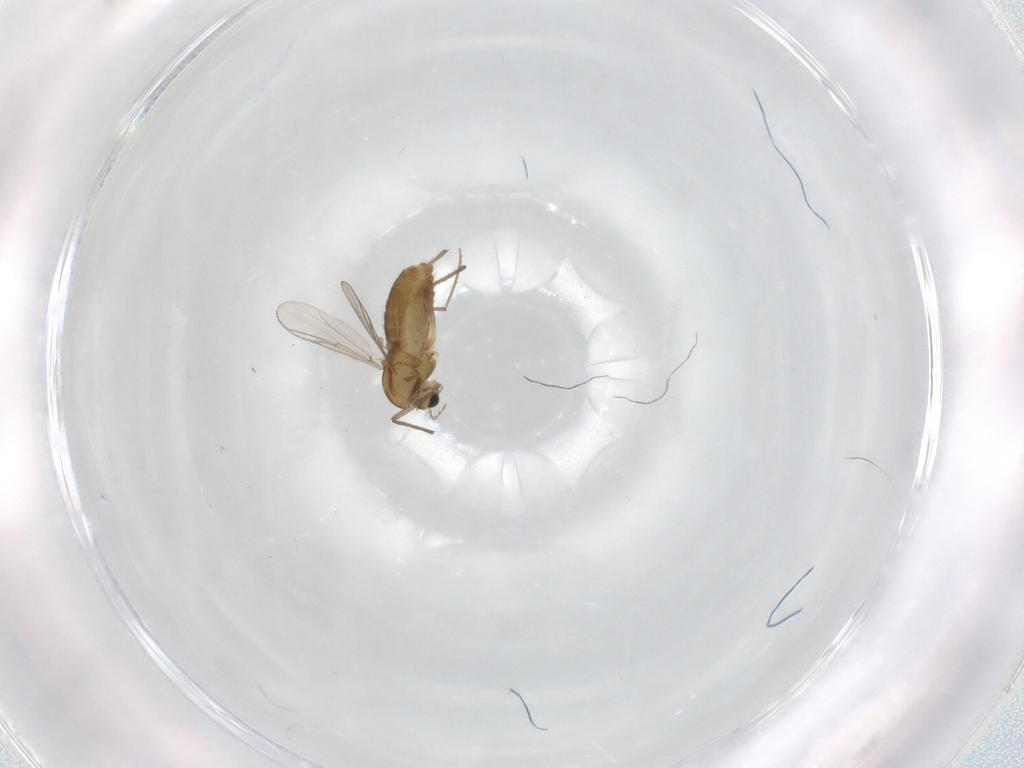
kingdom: Animalia
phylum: Arthropoda
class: Insecta
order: Diptera
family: Chironomidae
